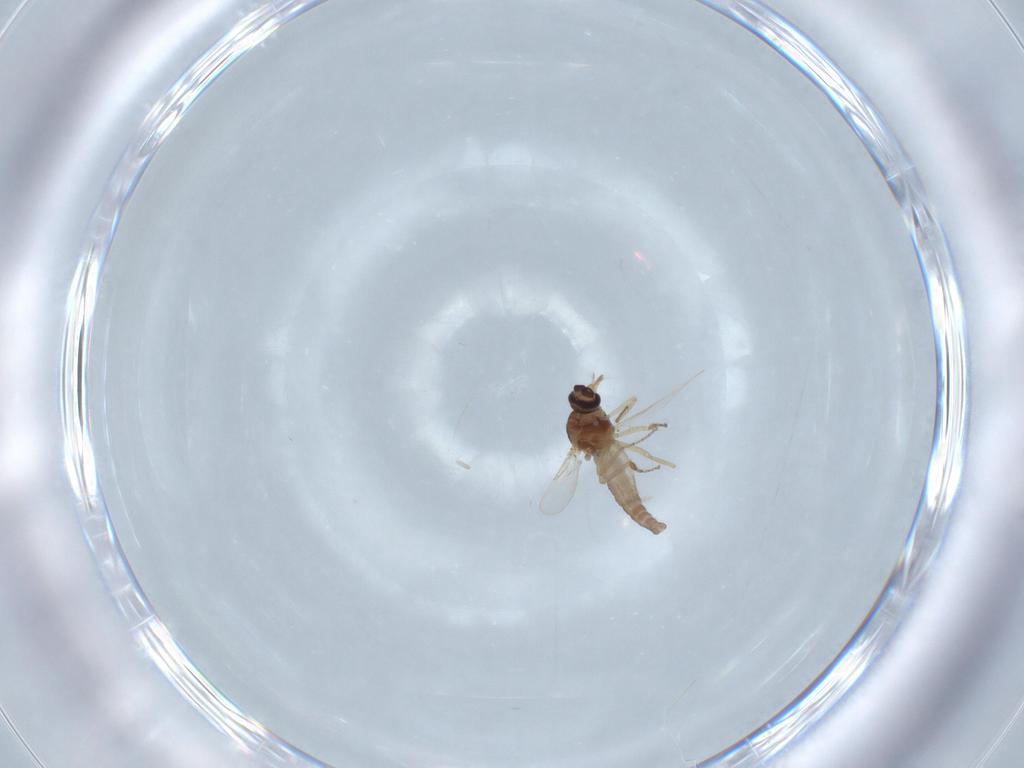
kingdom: Animalia
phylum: Arthropoda
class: Insecta
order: Diptera
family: Ceratopogonidae
